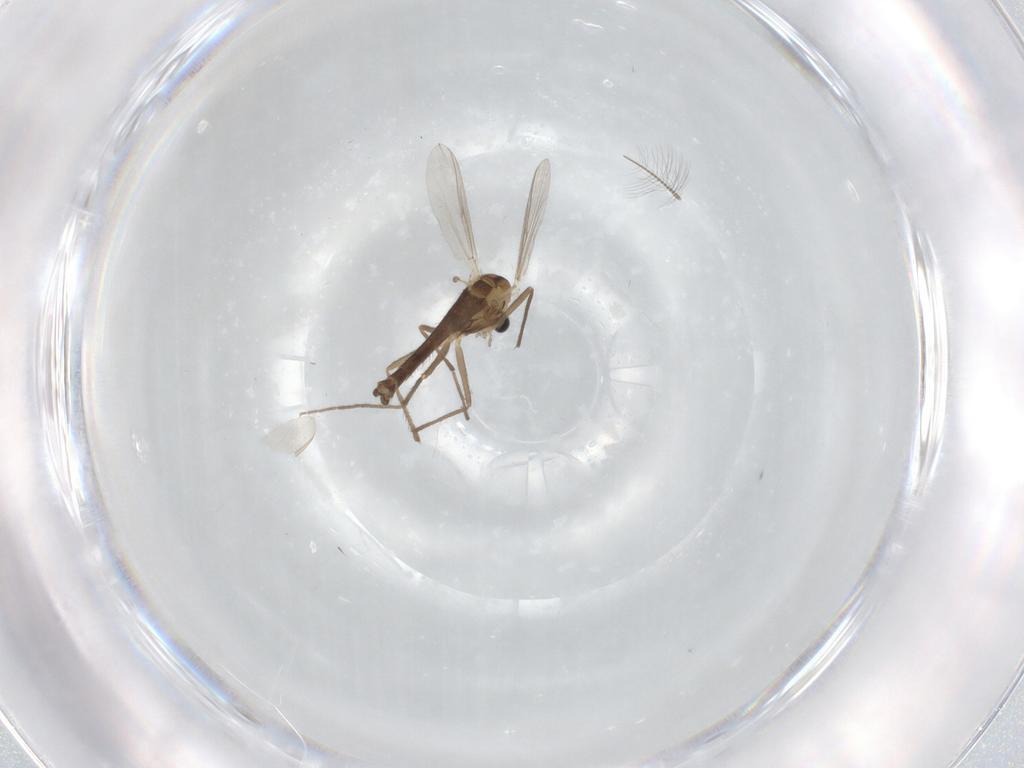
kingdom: Animalia
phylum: Arthropoda
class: Insecta
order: Diptera
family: Chironomidae
